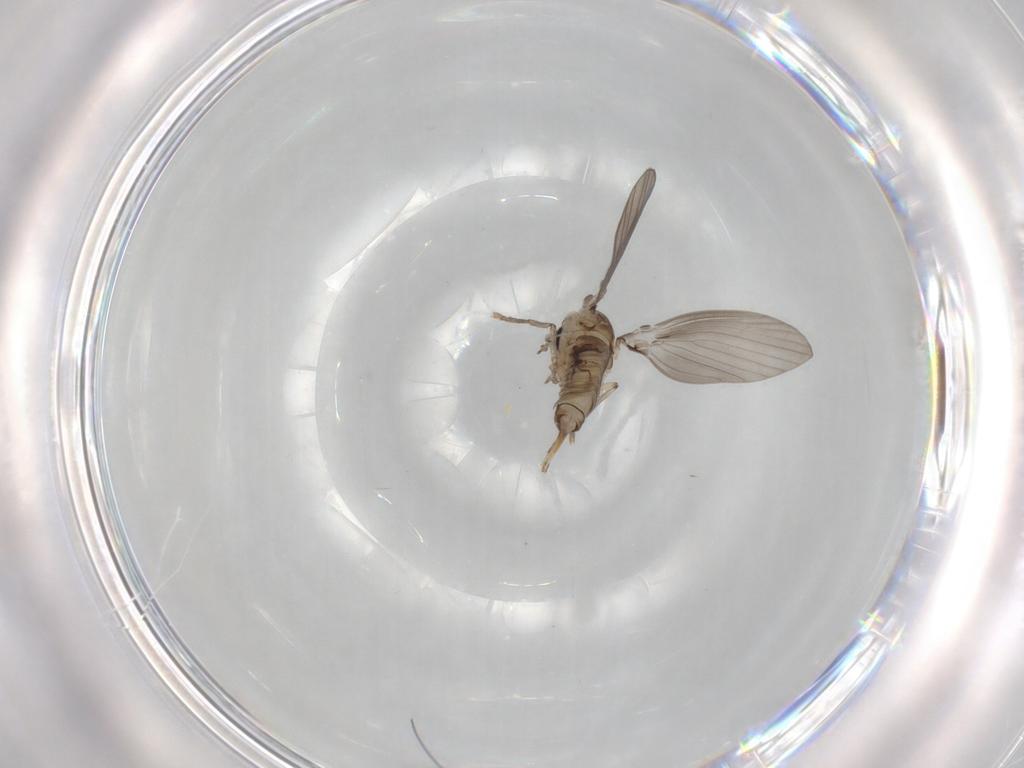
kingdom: Animalia
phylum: Arthropoda
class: Insecta
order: Diptera
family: Psychodidae
